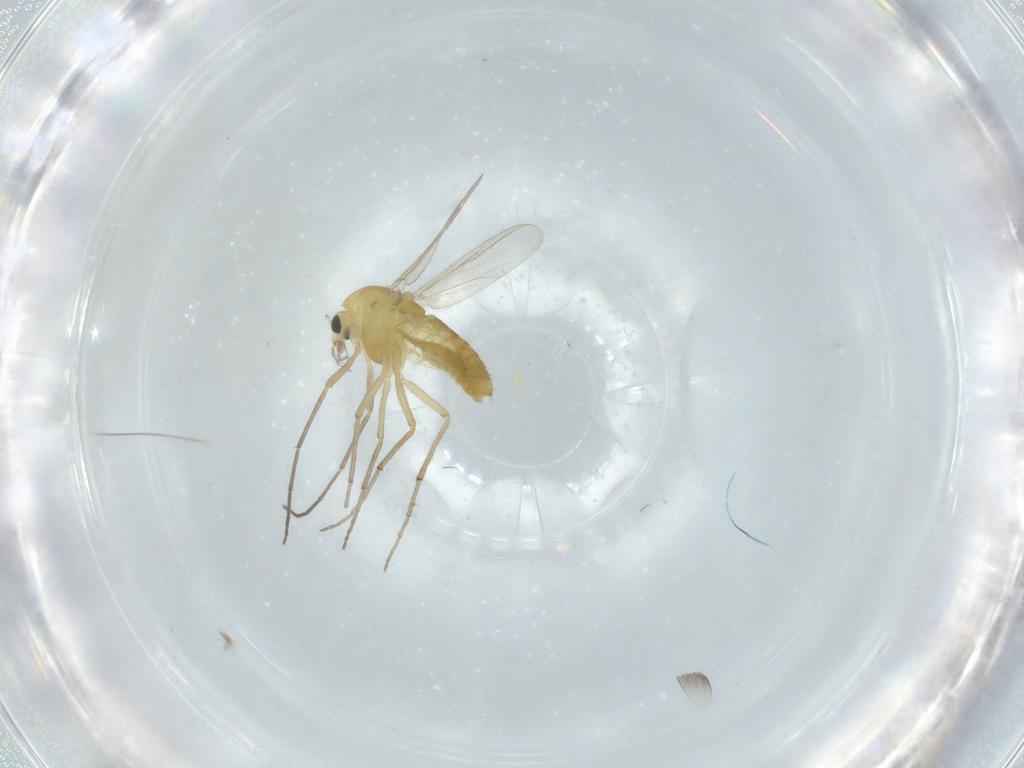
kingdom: Animalia
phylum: Arthropoda
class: Insecta
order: Diptera
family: Chironomidae
